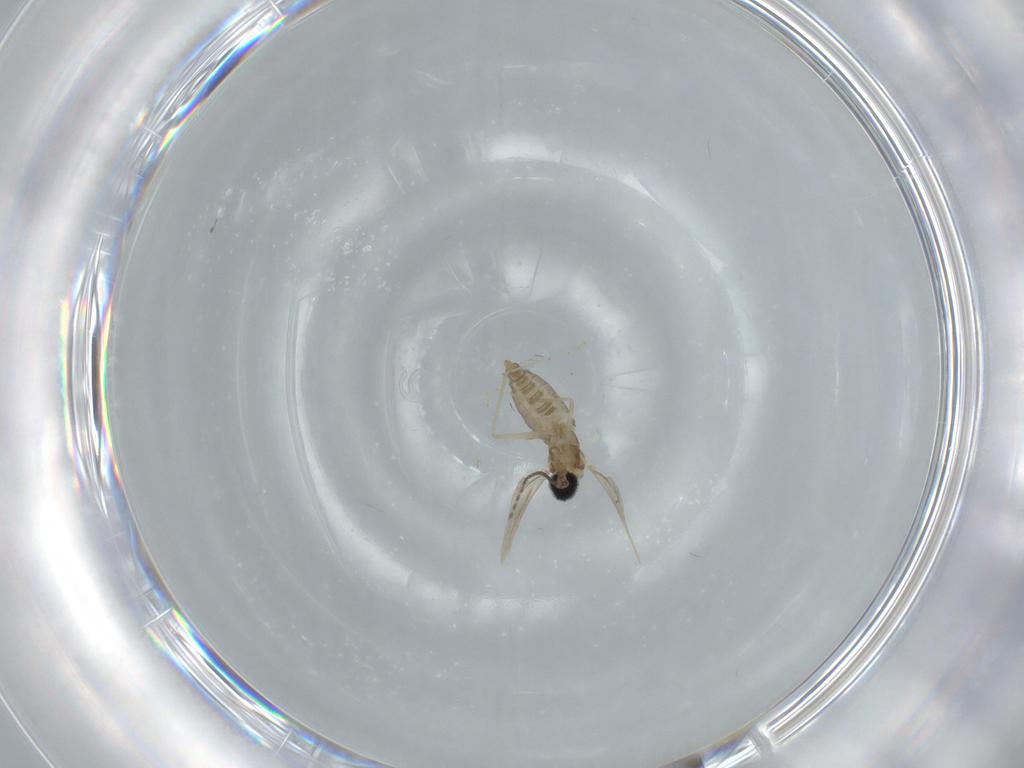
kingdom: Animalia
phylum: Arthropoda
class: Insecta
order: Diptera
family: Cecidomyiidae
